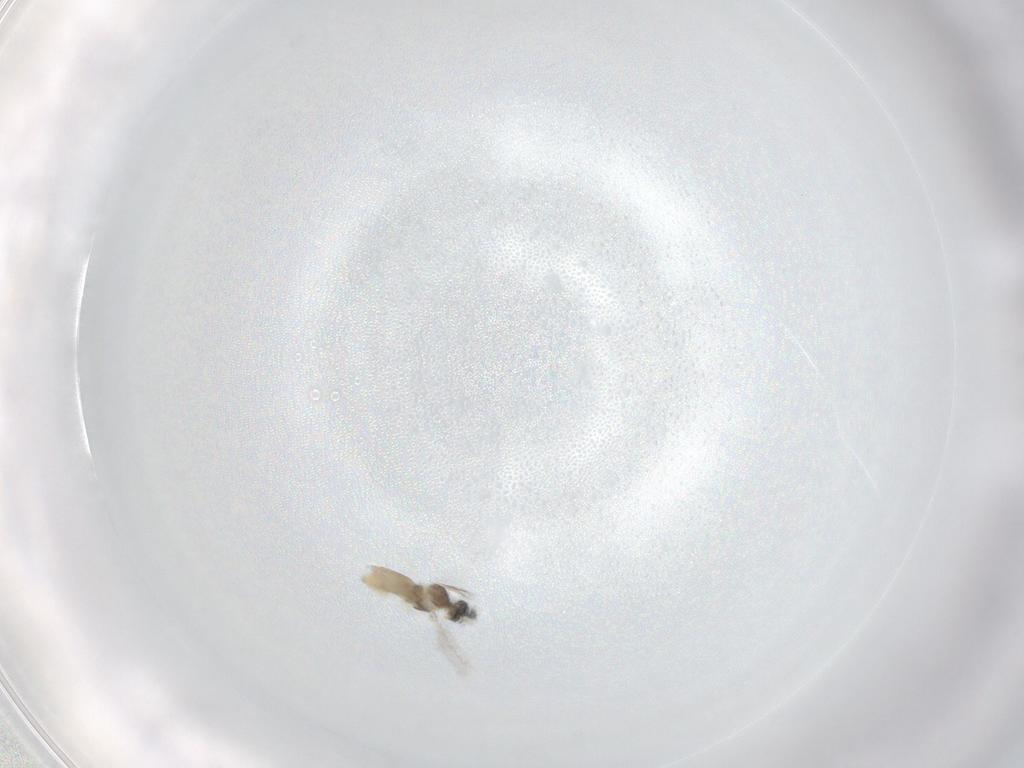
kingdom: Animalia
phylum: Arthropoda
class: Insecta
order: Diptera
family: Cecidomyiidae
